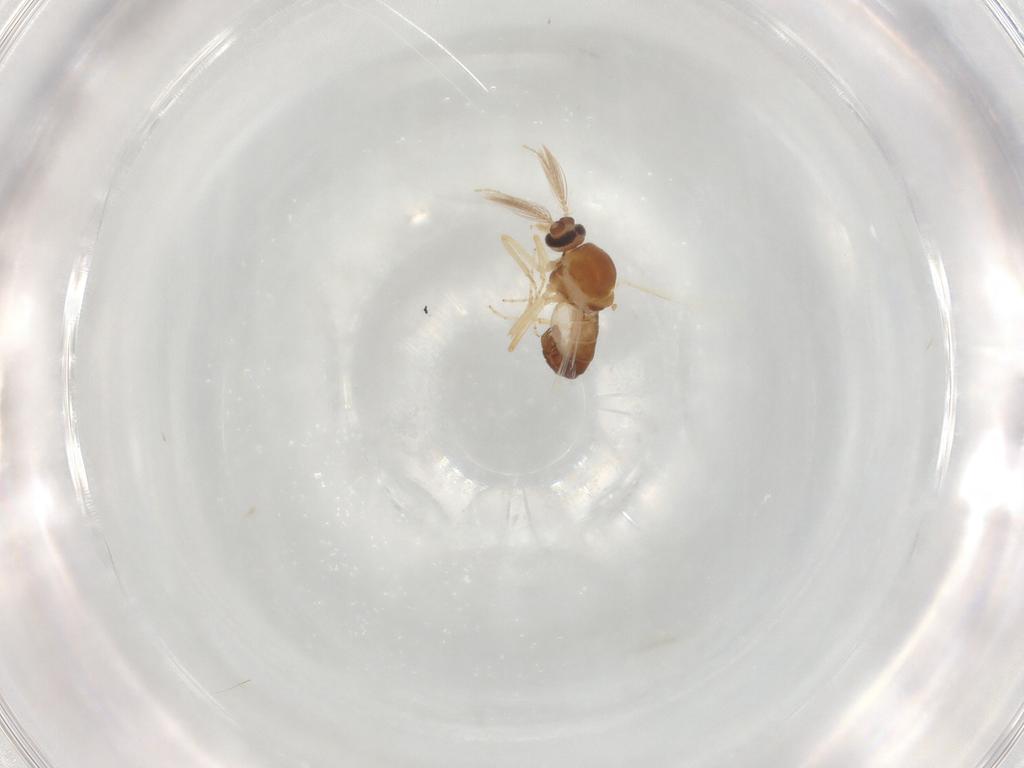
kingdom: Animalia
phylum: Arthropoda
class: Insecta
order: Diptera
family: Ceratopogonidae
